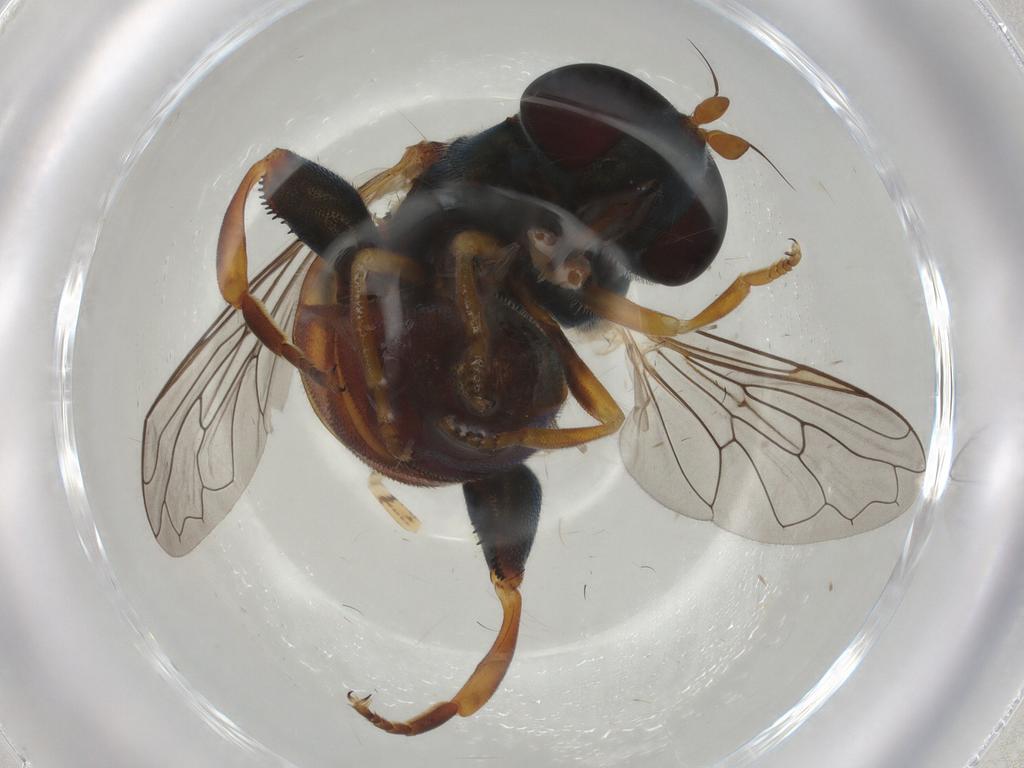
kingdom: Animalia
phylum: Arthropoda
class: Insecta
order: Diptera
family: Syrphidae
